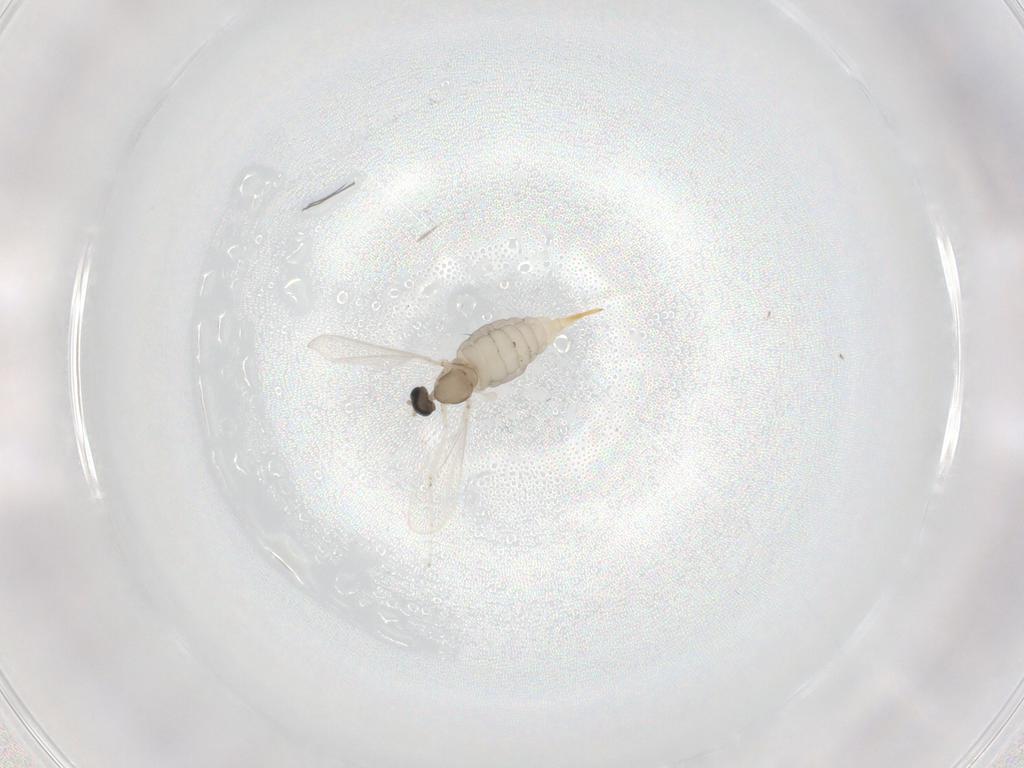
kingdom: Animalia
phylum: Arthropoda
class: Insecta
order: Diptera
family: Cecidomyiidae
